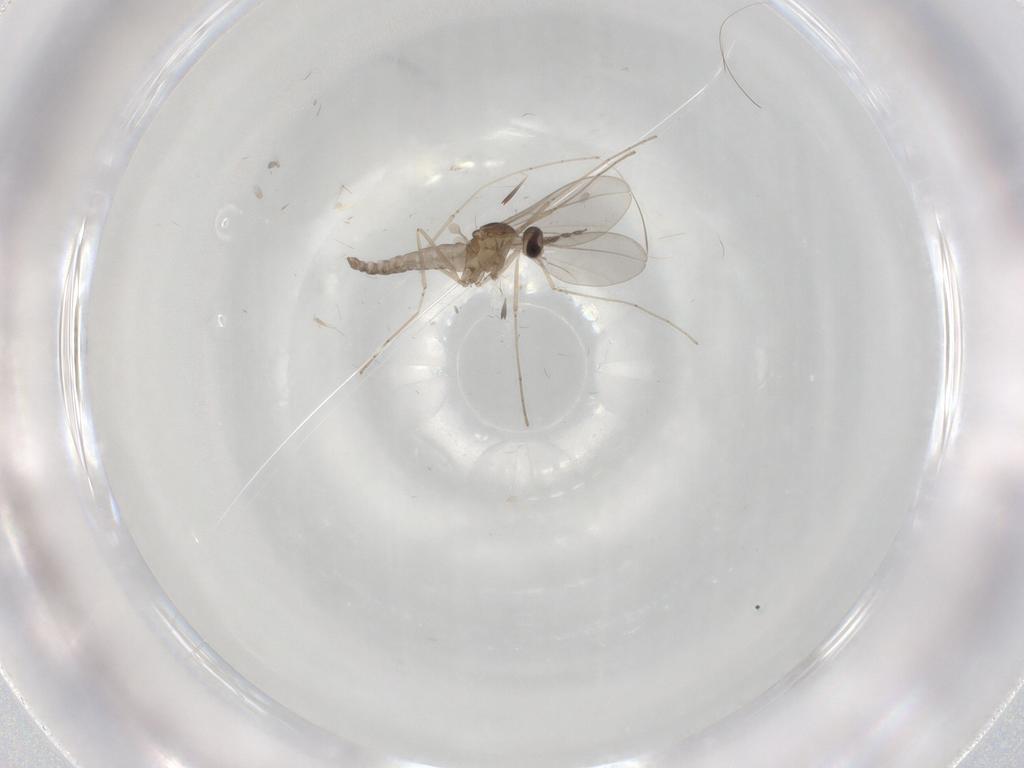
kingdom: Animalia
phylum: Arthropoda
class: Insecta
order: Diptera
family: Cecidomyiidae
